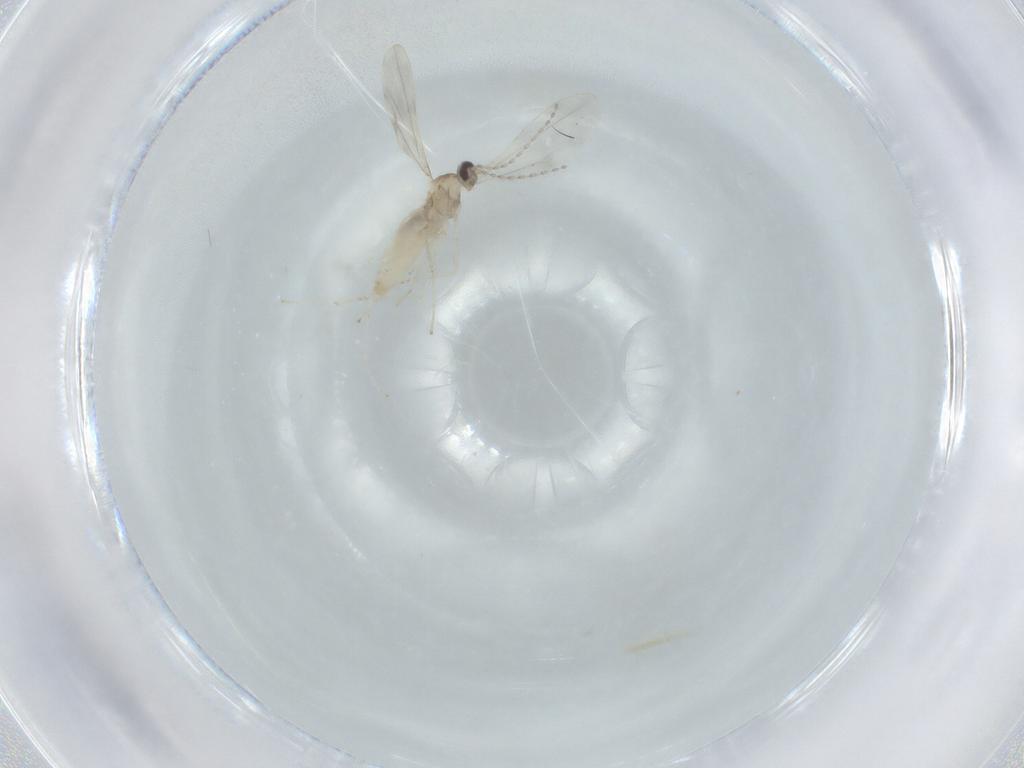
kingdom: Animalia
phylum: Arthropoda
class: Insecta
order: Diptera
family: Cecidomyiidae
